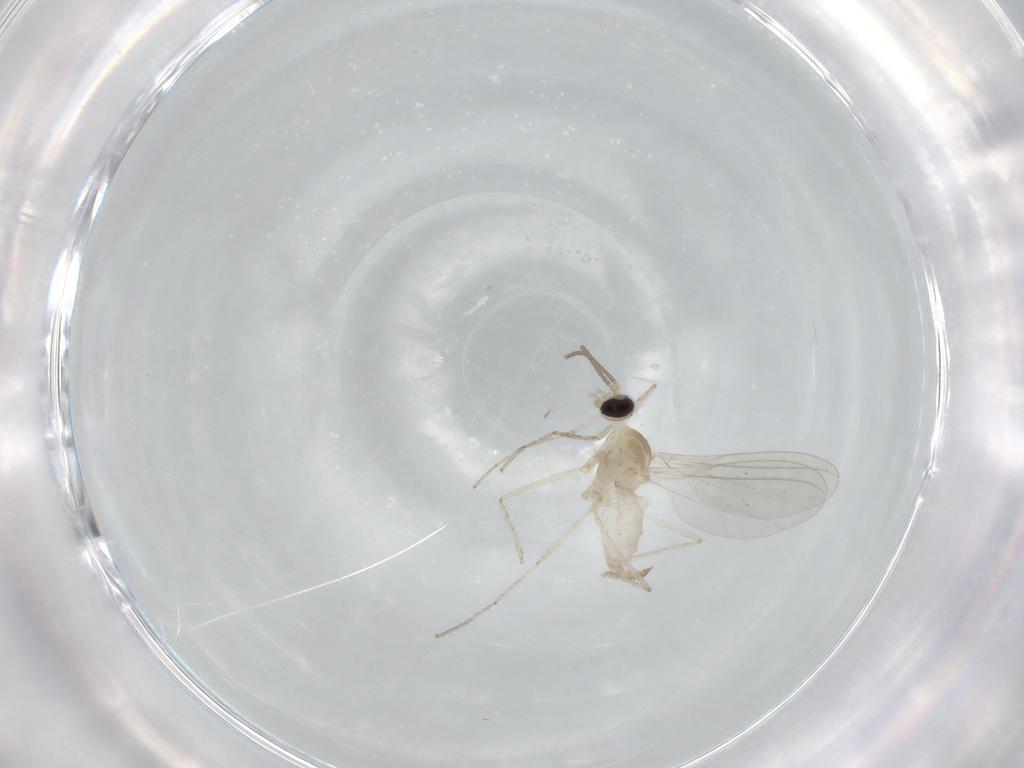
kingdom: Animalia
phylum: Arthropoda
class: Insecta
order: Diptera
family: Cecidomyiidae
